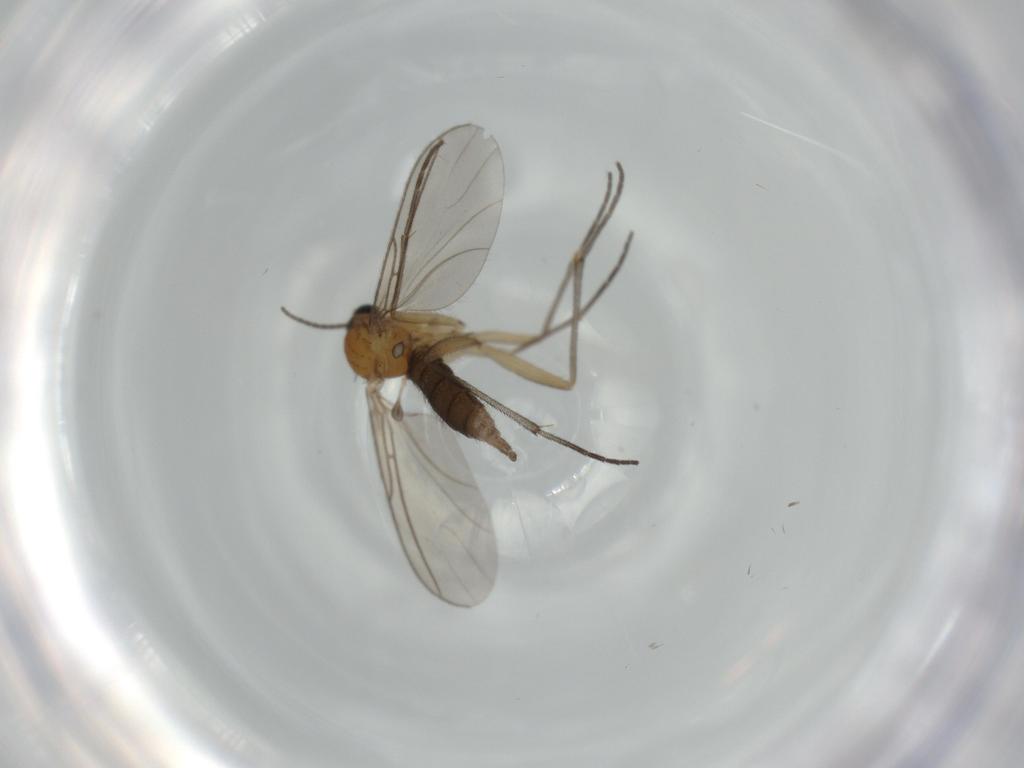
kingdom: Animalia
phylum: Arthropoda
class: Insecta
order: Diptera
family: Sciaridae
